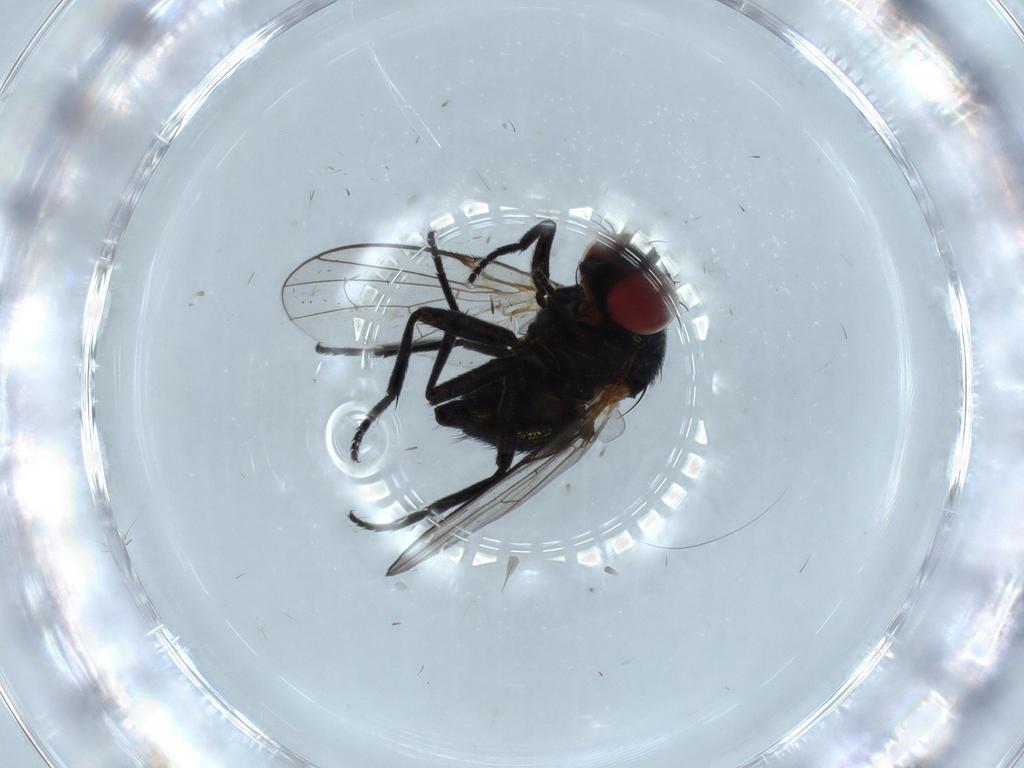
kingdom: Animalia
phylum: Arthropoda
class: Insecta
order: Diptera
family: Agromyzidae
